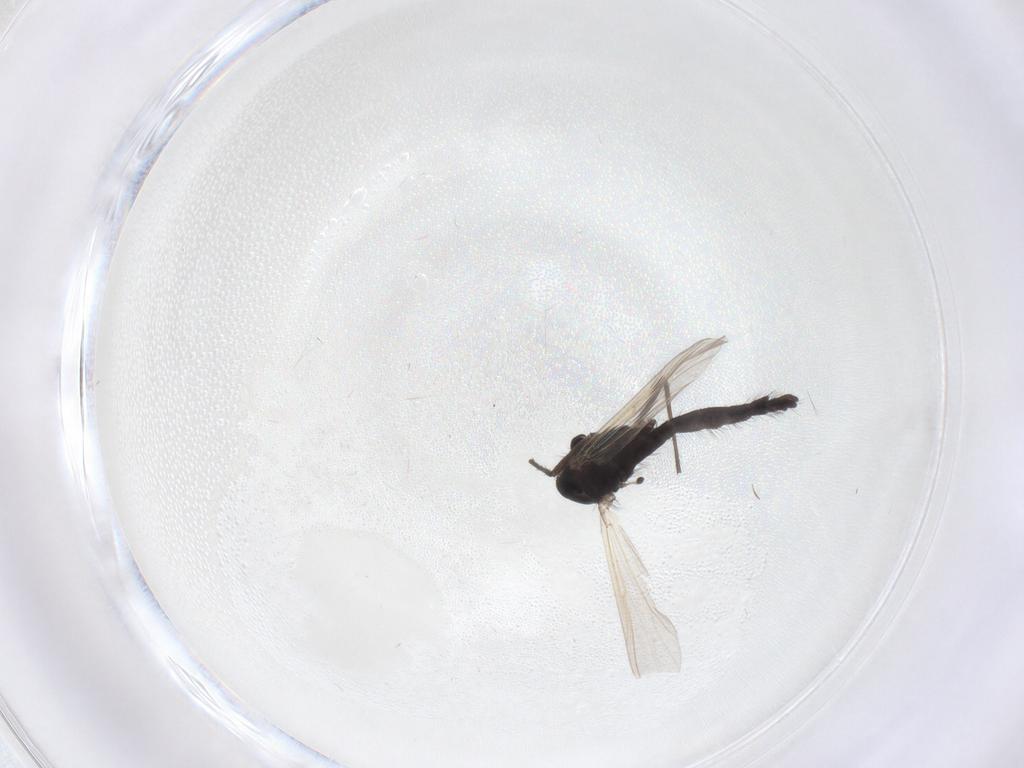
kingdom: Animalia
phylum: Arthropoda
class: Insecta
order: Diptera
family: Chironomidae
